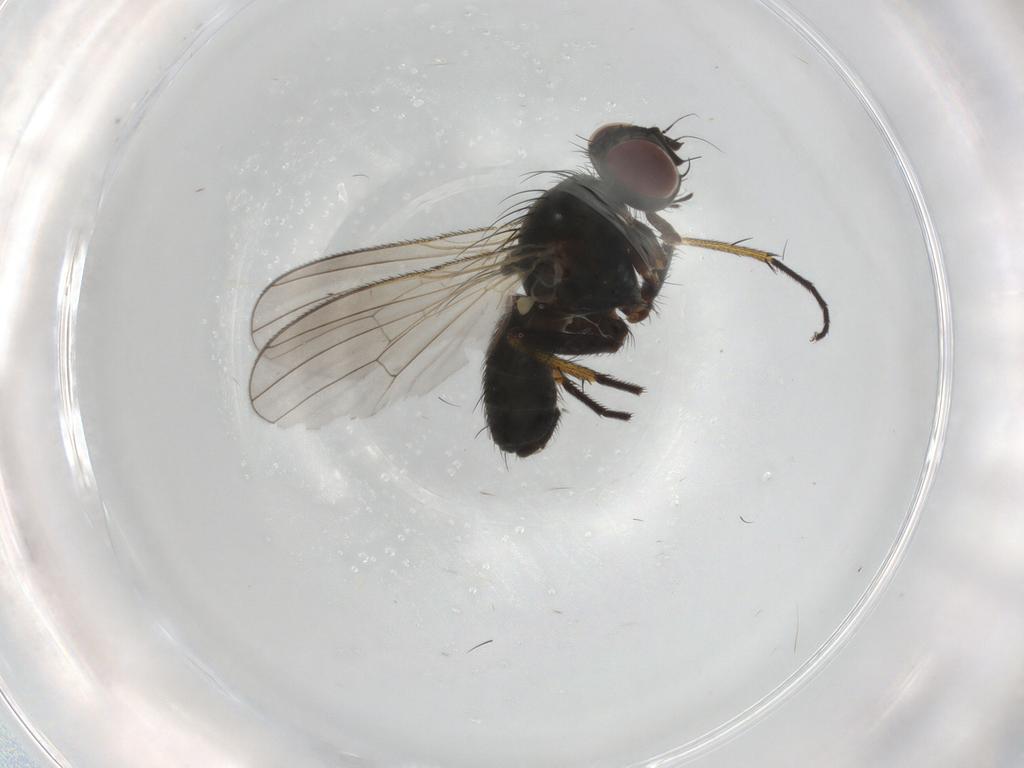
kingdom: Animalia
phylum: Arthropoda
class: Insecta
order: Diptera
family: Muscidae
